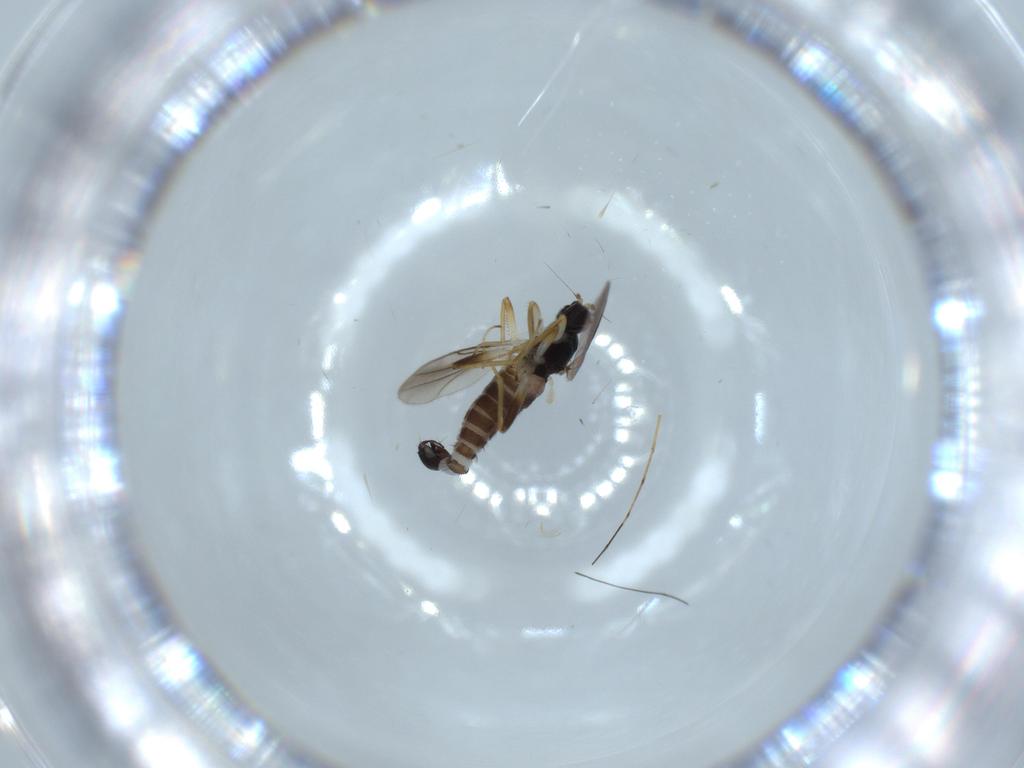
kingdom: Animalia
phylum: Arthropoda
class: Insecta
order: Diptera
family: Hybotidae
